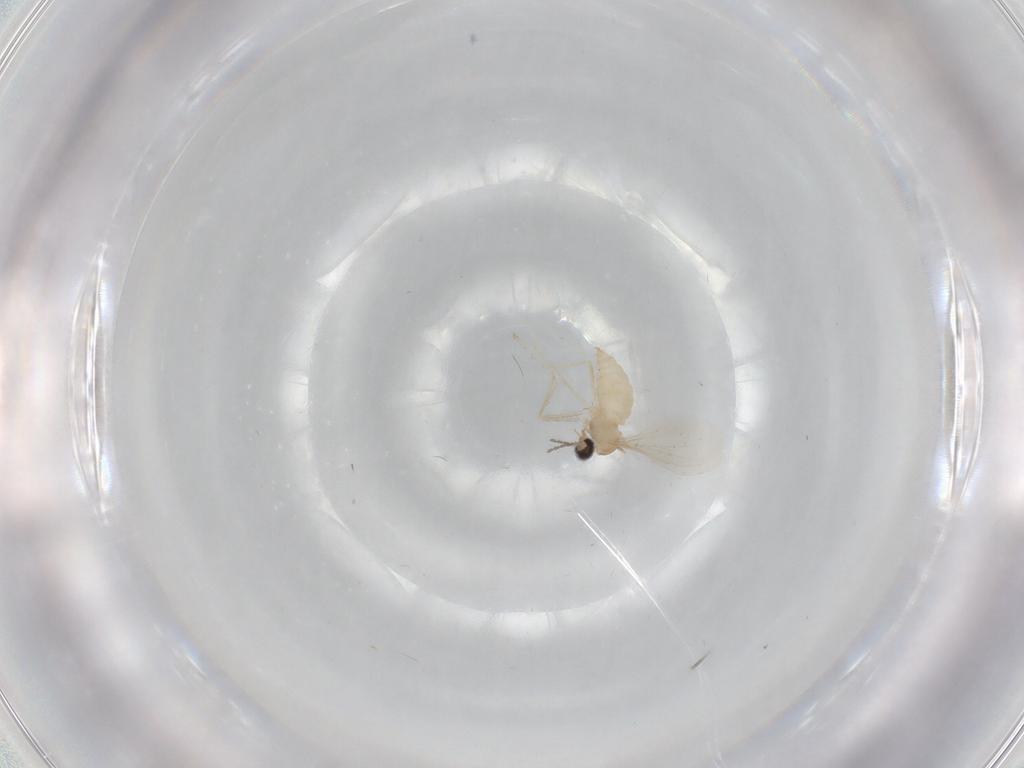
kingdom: Animalia
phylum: Arthropoda
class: Insecta
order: Diptera
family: Cecidomyiidae
